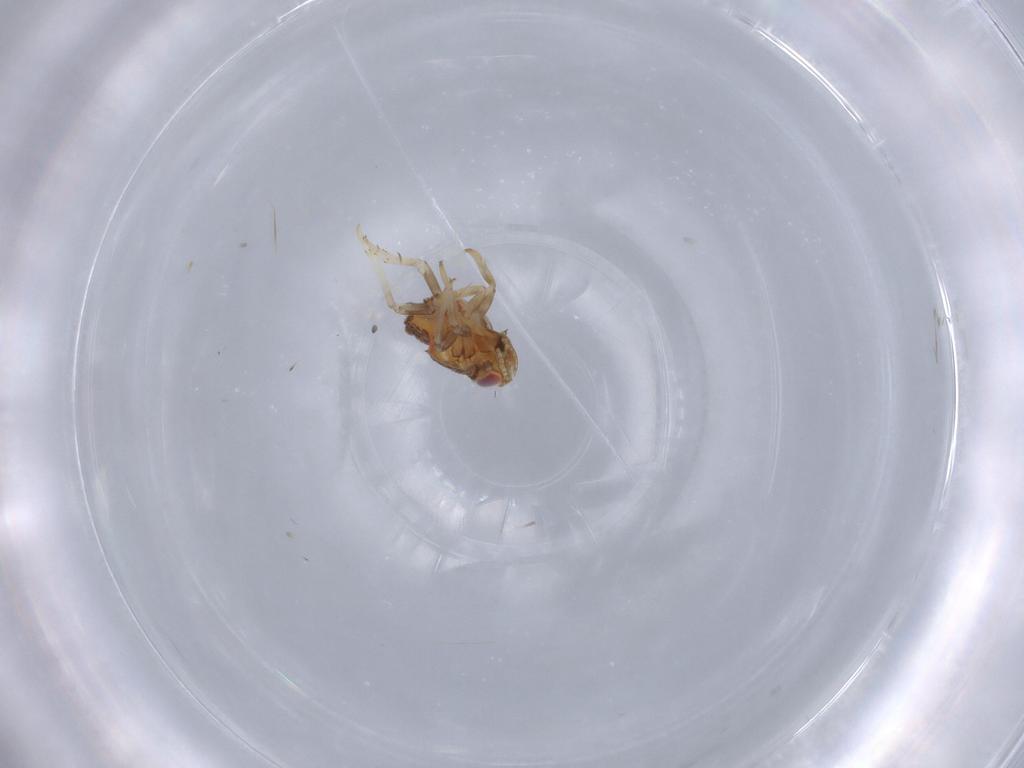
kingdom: Animalia
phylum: Arthropoda
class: Insecta
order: Hemiptera
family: Issidae
